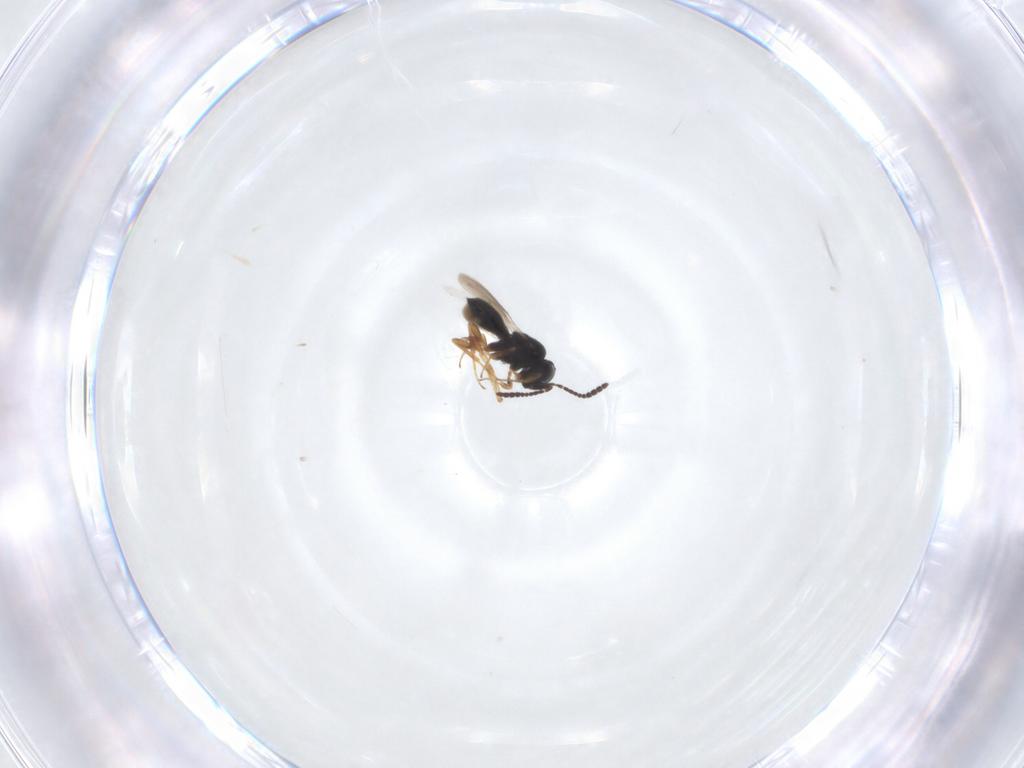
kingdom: Animalia
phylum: Arthropoda
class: Insecta
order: Hymenoptera
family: Scelionidae
